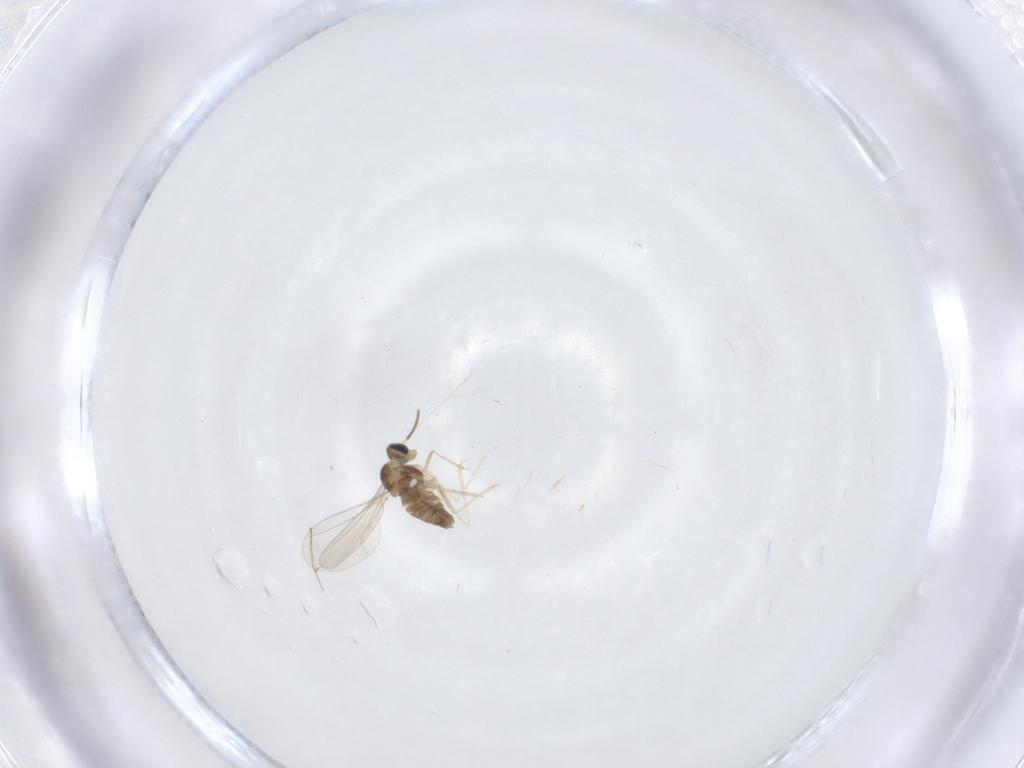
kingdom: Animalia
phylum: Arthropoda
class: Insecta
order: Diptera
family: Cecidomyiidae
